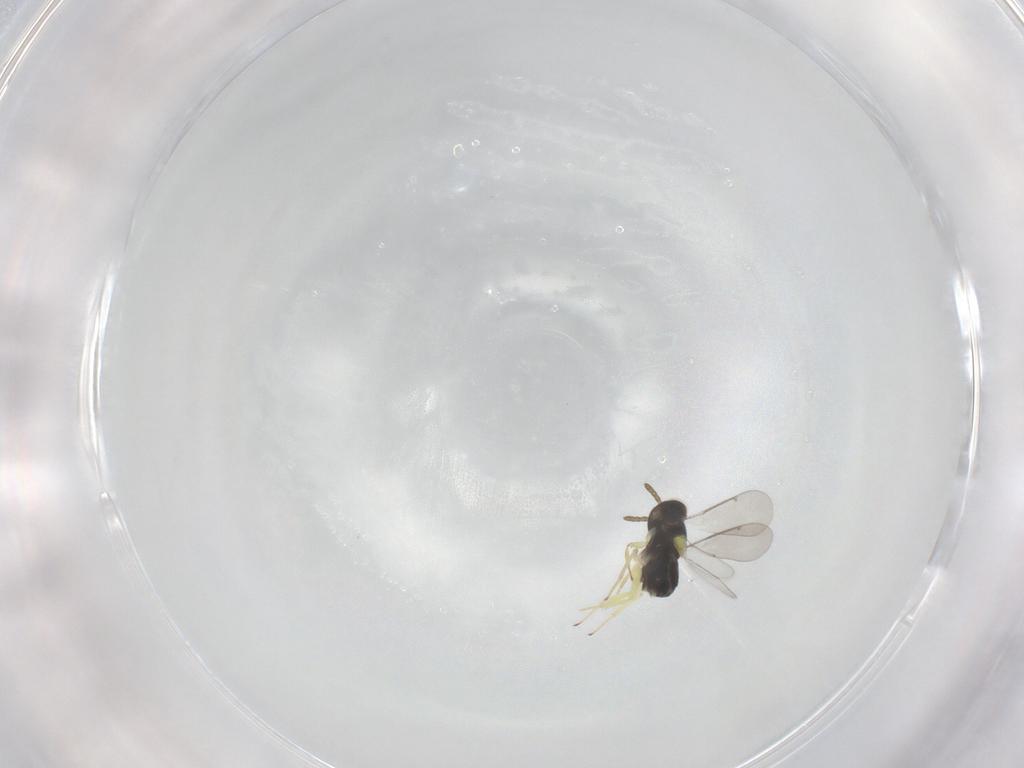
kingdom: Animalia
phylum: Arthropoda
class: Insecta
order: Hymenoptera
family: Aphelinidae
